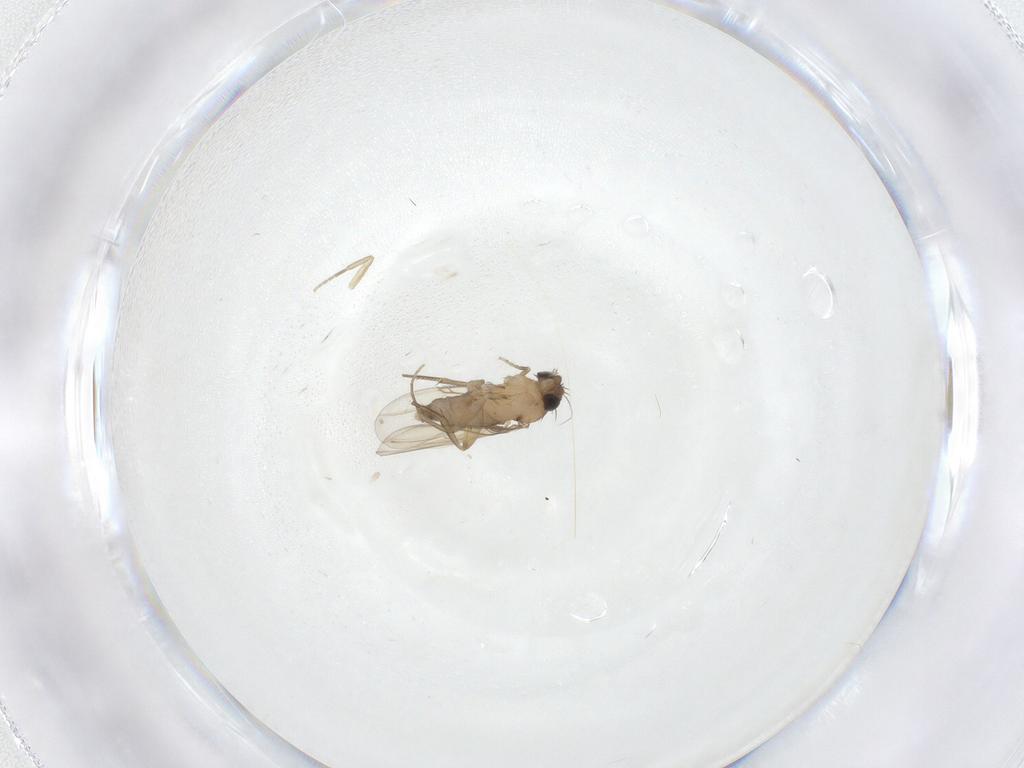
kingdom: Animalia
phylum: Arthropoda
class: Insecta
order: Diptera
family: Phoridae
